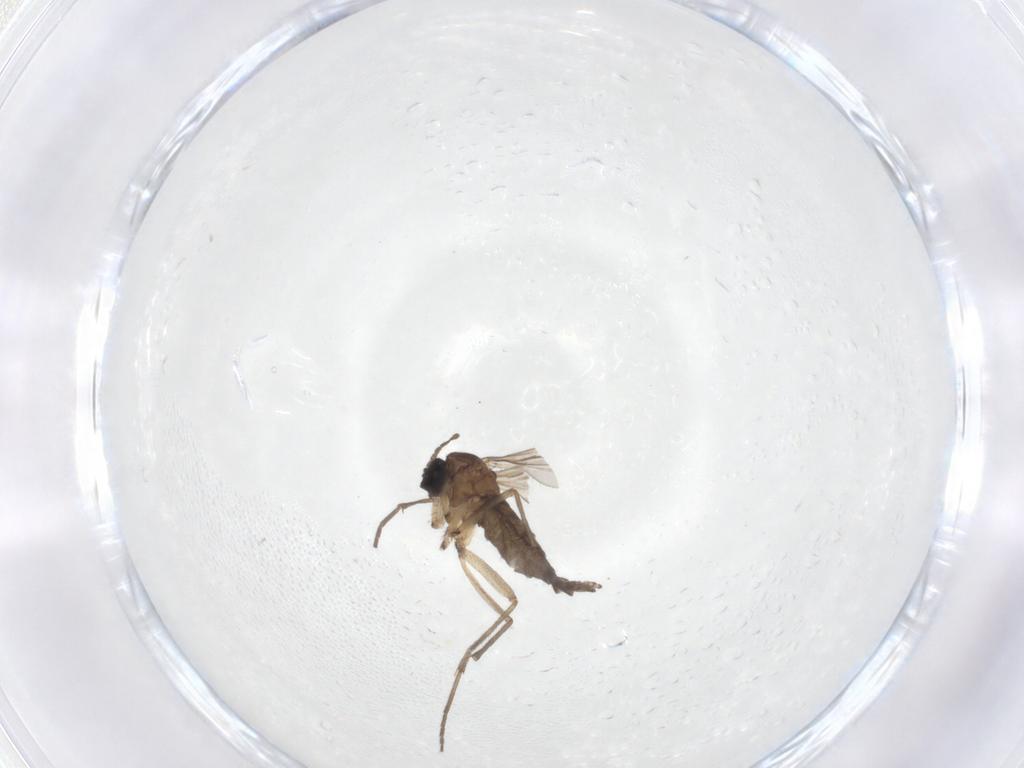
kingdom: Animalia
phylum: Arthropoda
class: Insecta
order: Diptera
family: Sciaridae
